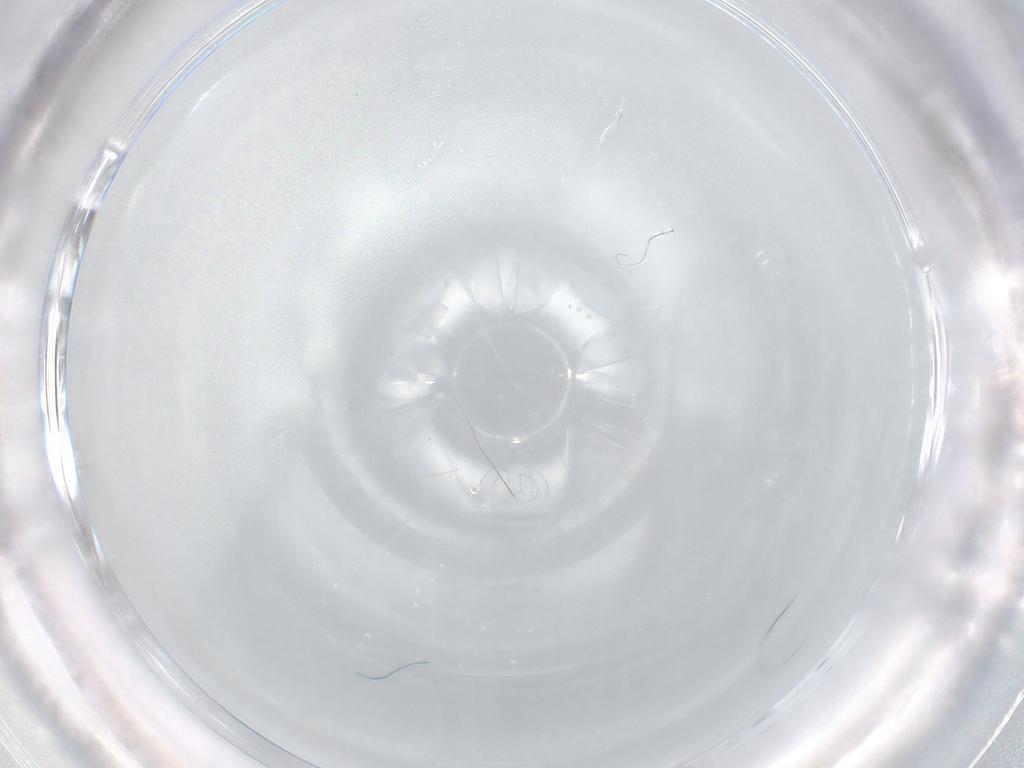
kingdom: Animalia
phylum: Arthropoda
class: Insecta
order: Diptera
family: Cecidomyiidae
